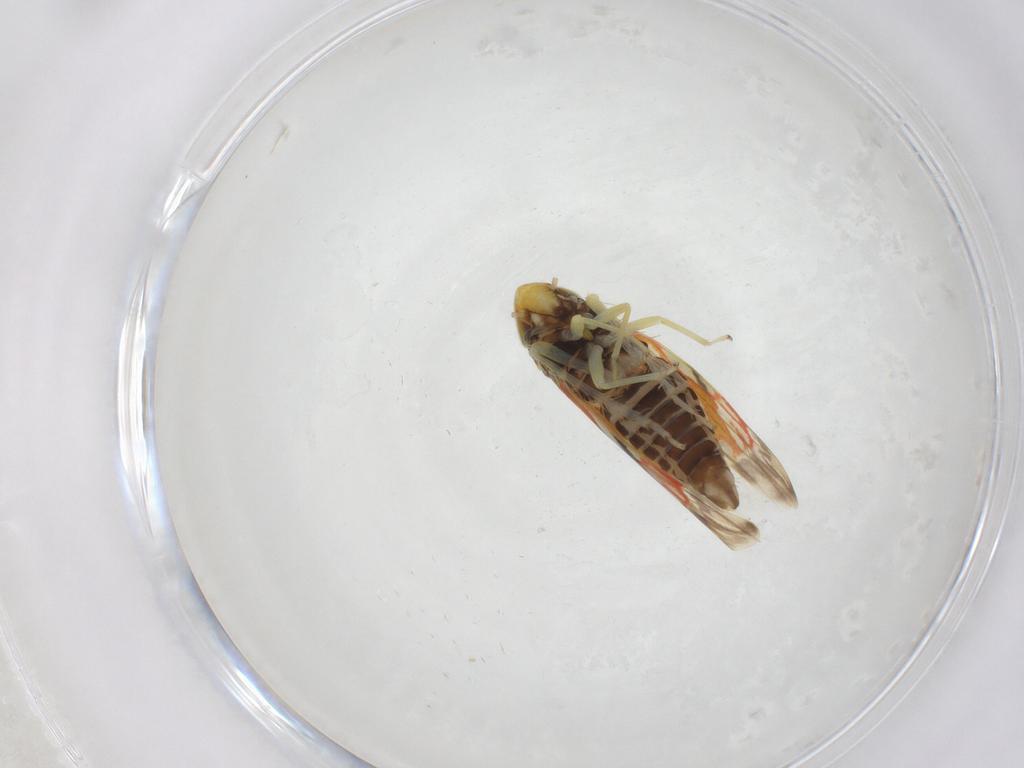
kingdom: Animalia
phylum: Arthropoda
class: Insecta
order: Hemiptera
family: Cicadellidae
